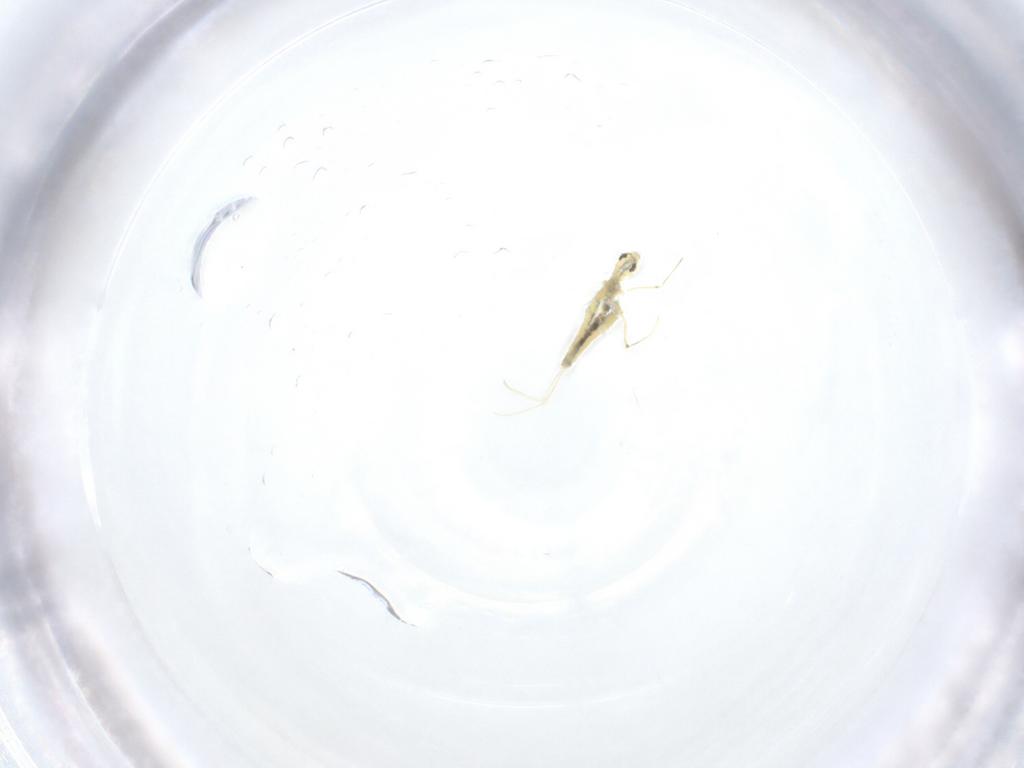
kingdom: Animalia
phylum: Arthropoda
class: Collembola
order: Entomobryomorpha
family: Paronellidae
